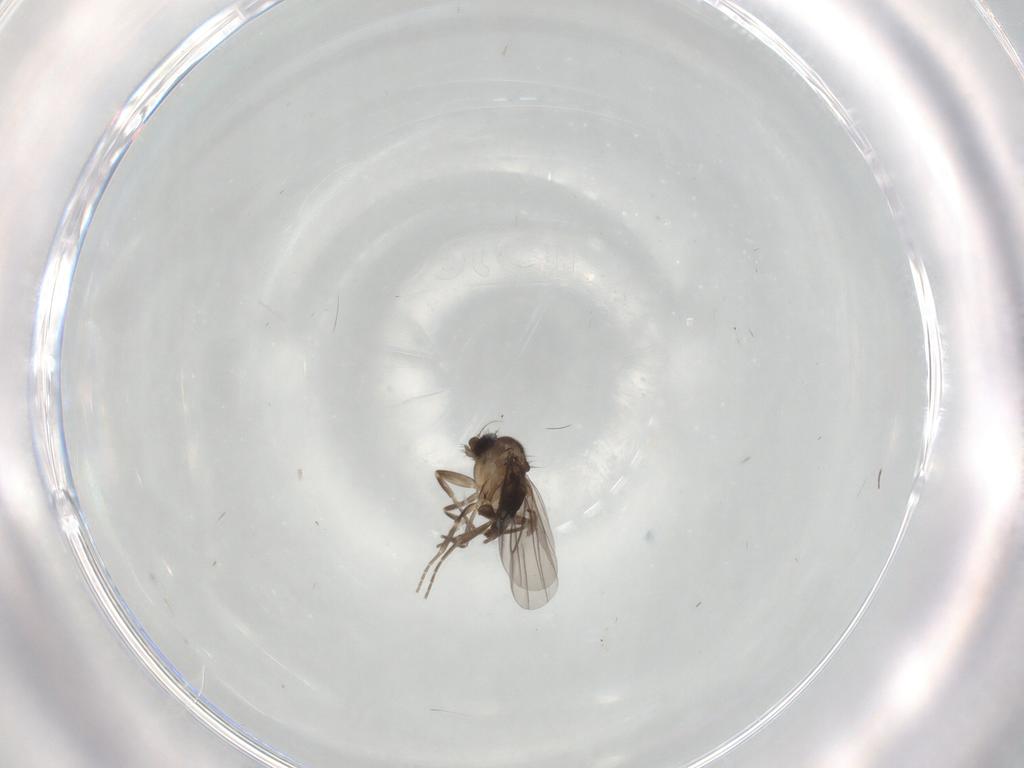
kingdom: Animalia
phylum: Arthropoda
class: Insecta
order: Diptera
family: Phoridae
